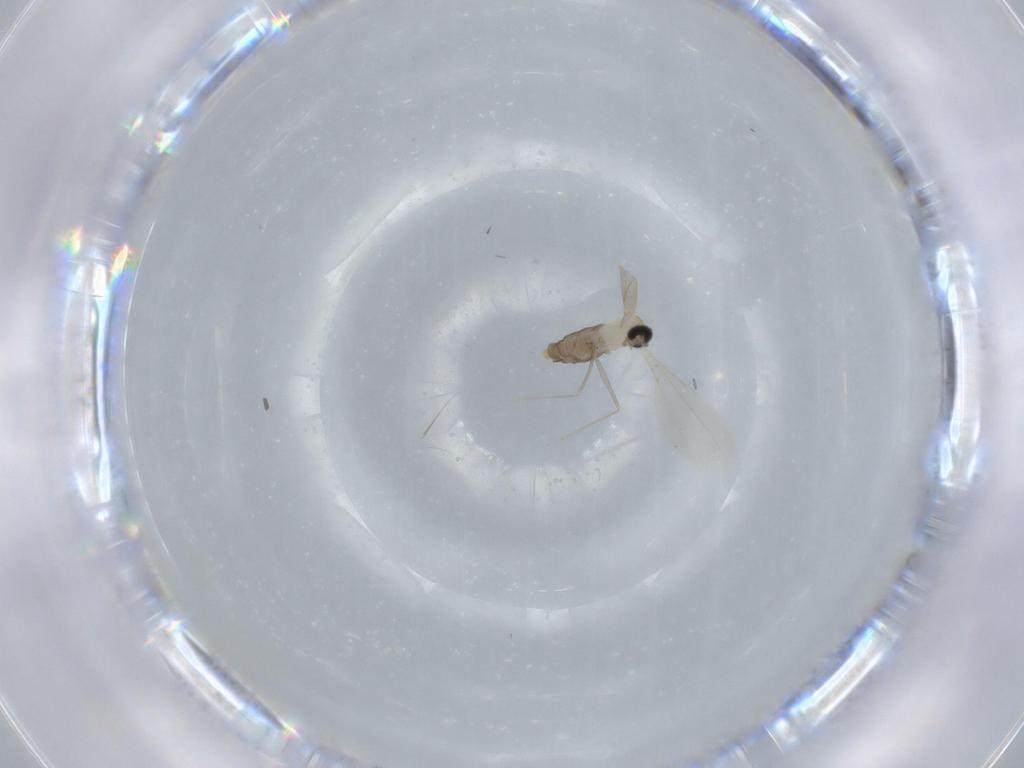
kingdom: Animalia
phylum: Arthropoda
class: Insecta
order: Diptera
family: Cecidomyiidae
